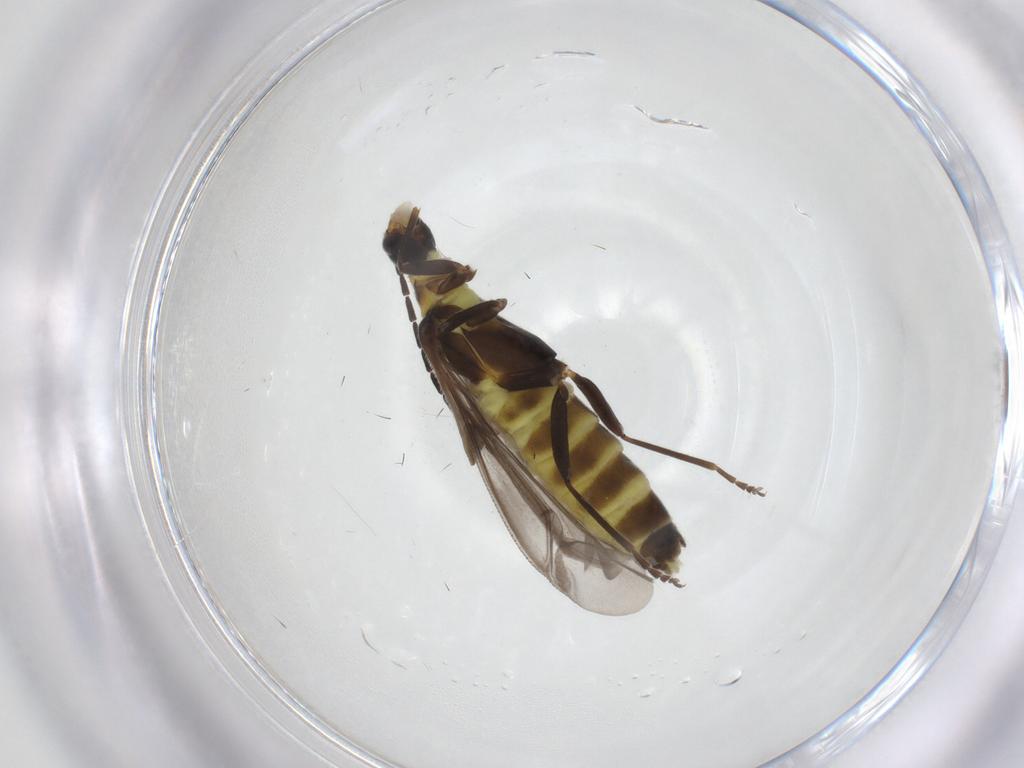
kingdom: Animalia
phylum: Arthropoda
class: Insecta
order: Coleoptera
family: Cantharidae
